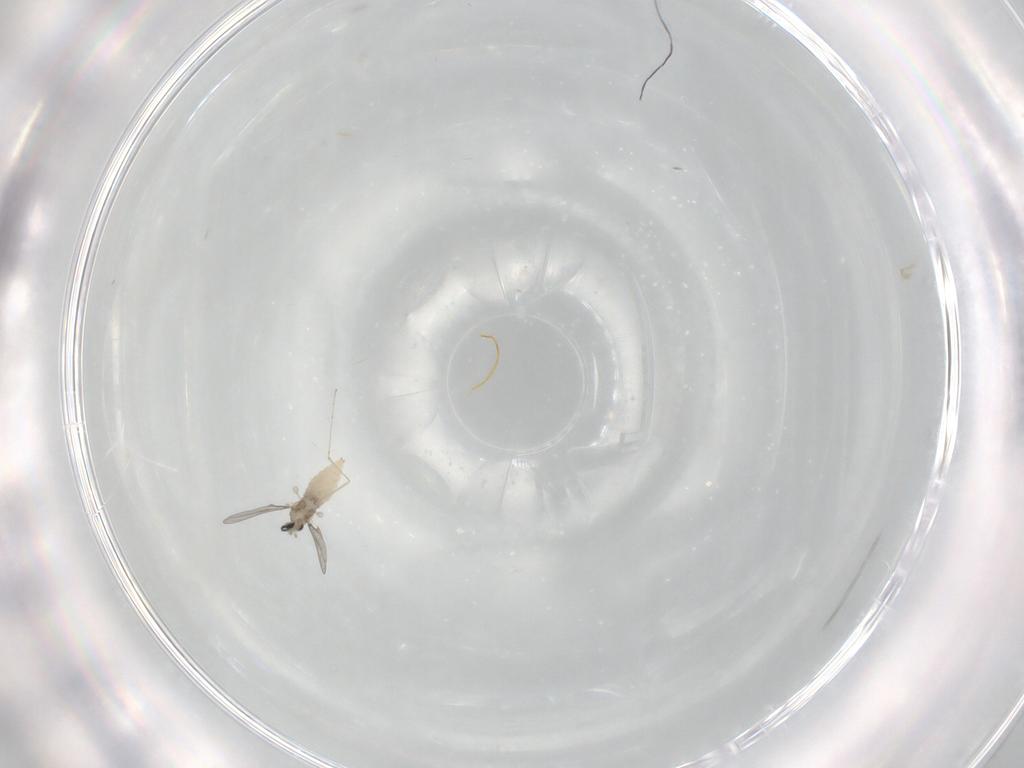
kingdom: Animalia
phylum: Arthropoda
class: Insecta
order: Diptera
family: Cecidomyiidae
